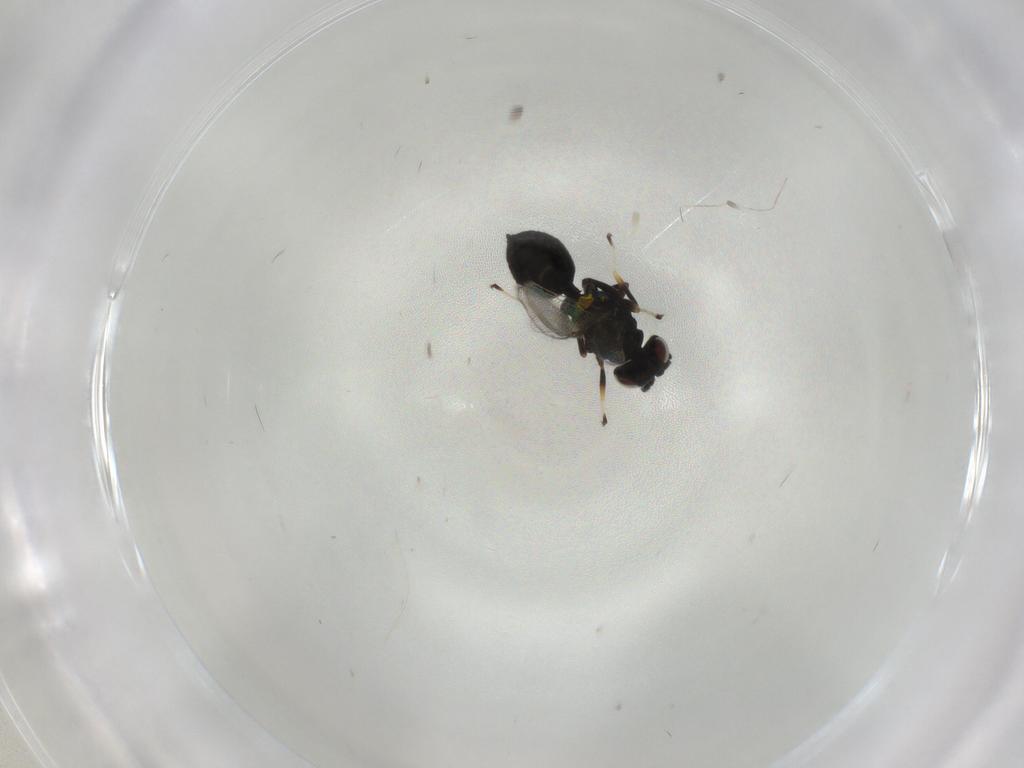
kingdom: Animalia
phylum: Arthropoda
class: Insecta
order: Hymenoptera
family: Eulophidae
